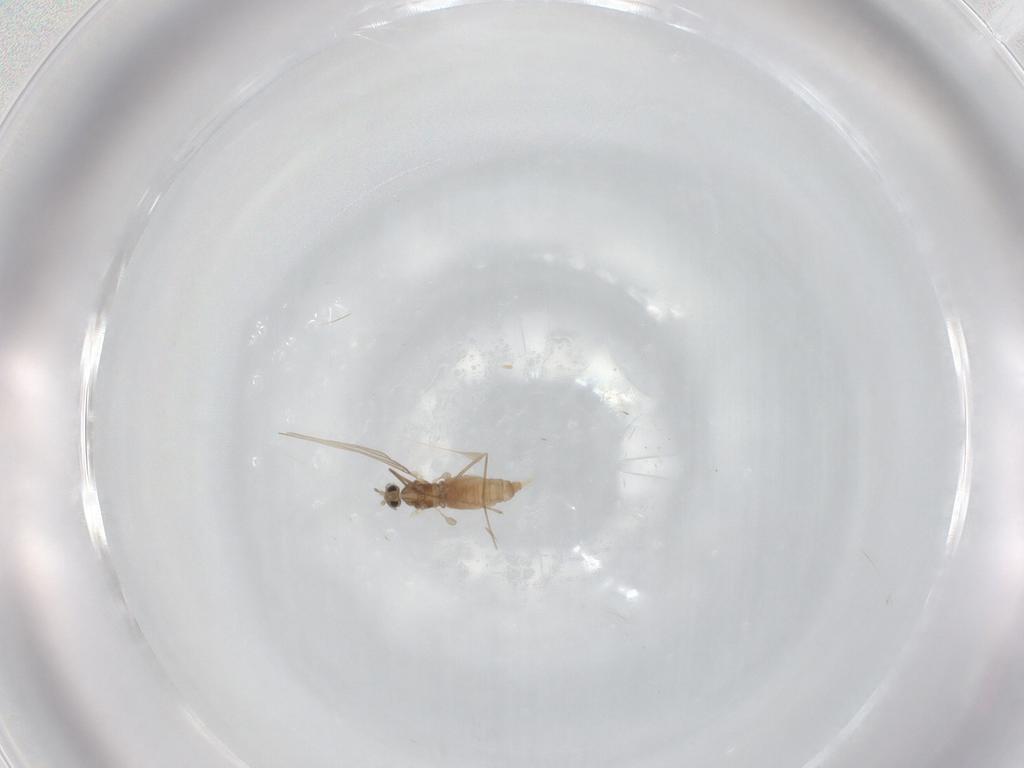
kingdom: Animalia
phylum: Arthropoda
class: Insecta
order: Diptera
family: Cecidomyiidae
